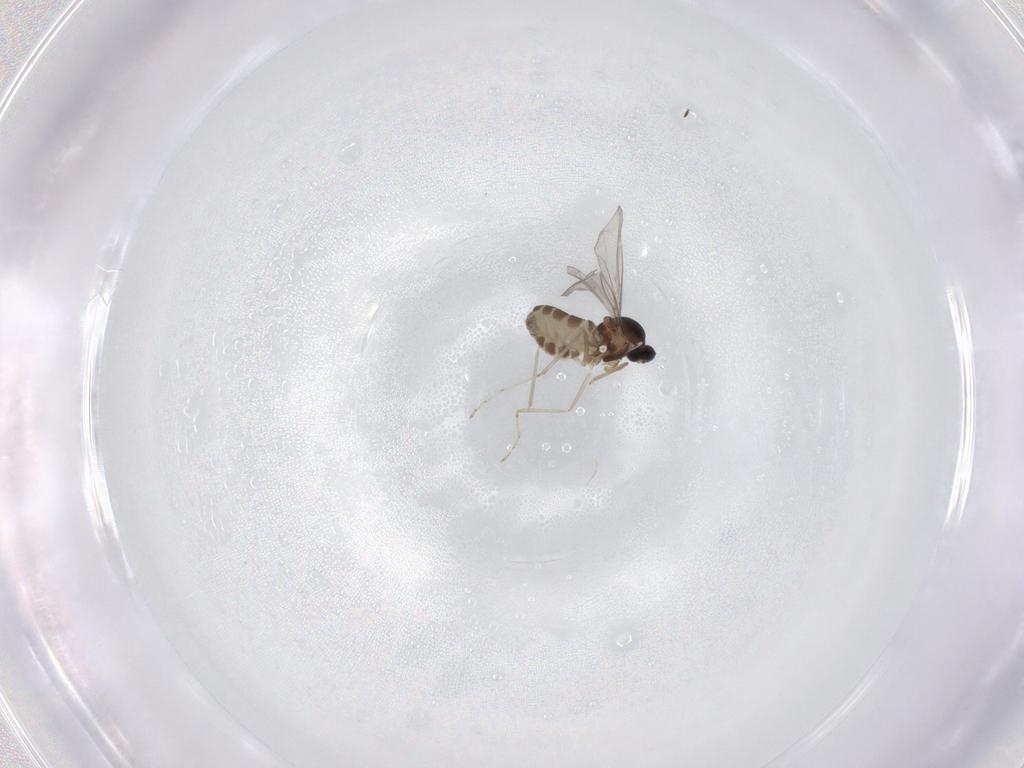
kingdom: Animalia
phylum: Arthropoda
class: Insecta
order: Diptera
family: Cecidomyiidae
